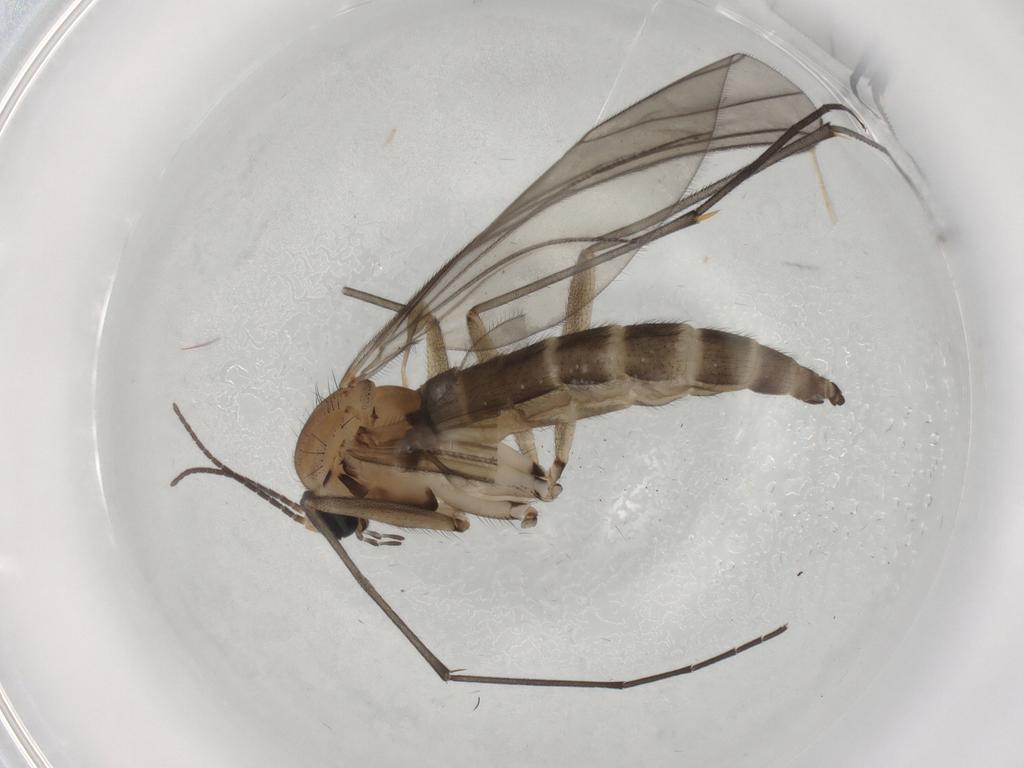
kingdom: Animalia
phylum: Arthropoda
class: Insecta
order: Diptera
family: Sciaridae
